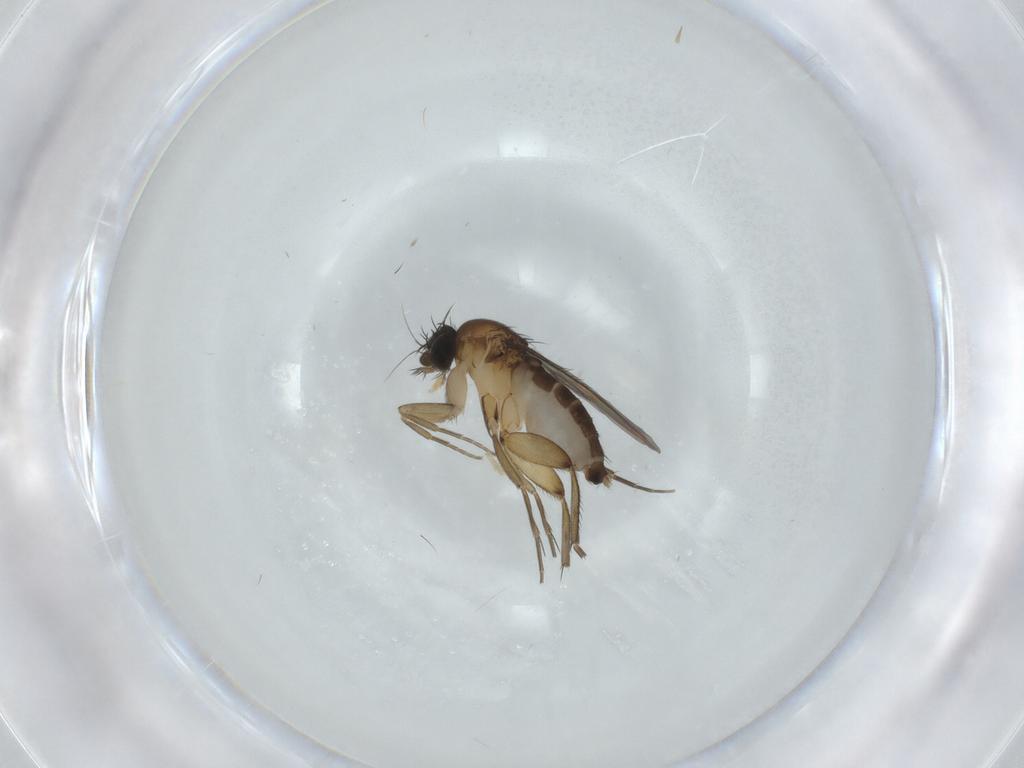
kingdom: Animalia
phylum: Arthropoda
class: Insecta
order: Diptera
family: Phoridae
